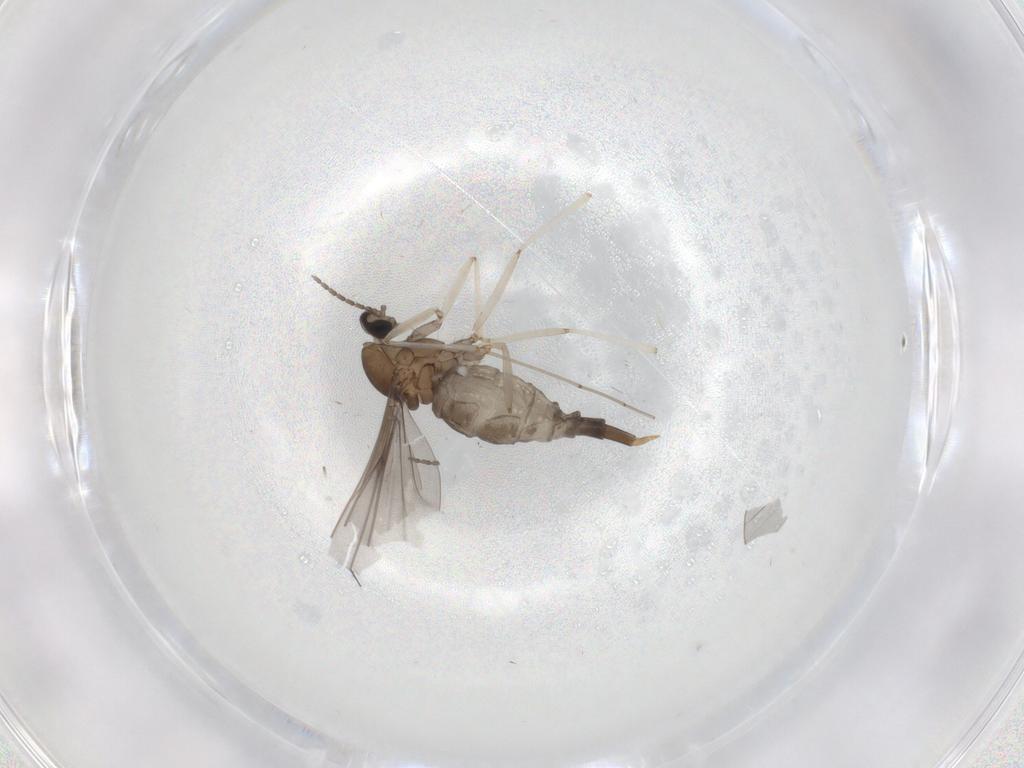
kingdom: Animalia
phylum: Arthropoda
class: Insecta
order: Diptera
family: Cecidomyiidae
